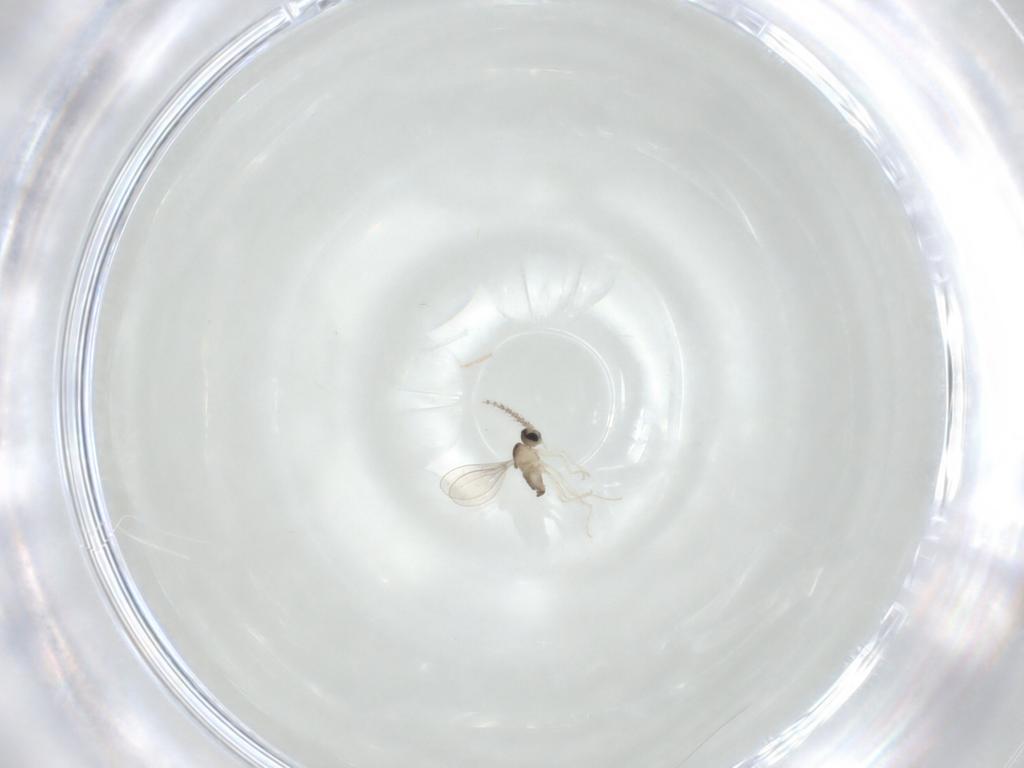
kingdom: Animalia
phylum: Arthropoda
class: Insecta
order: Diptera
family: Cecidomyiidae
